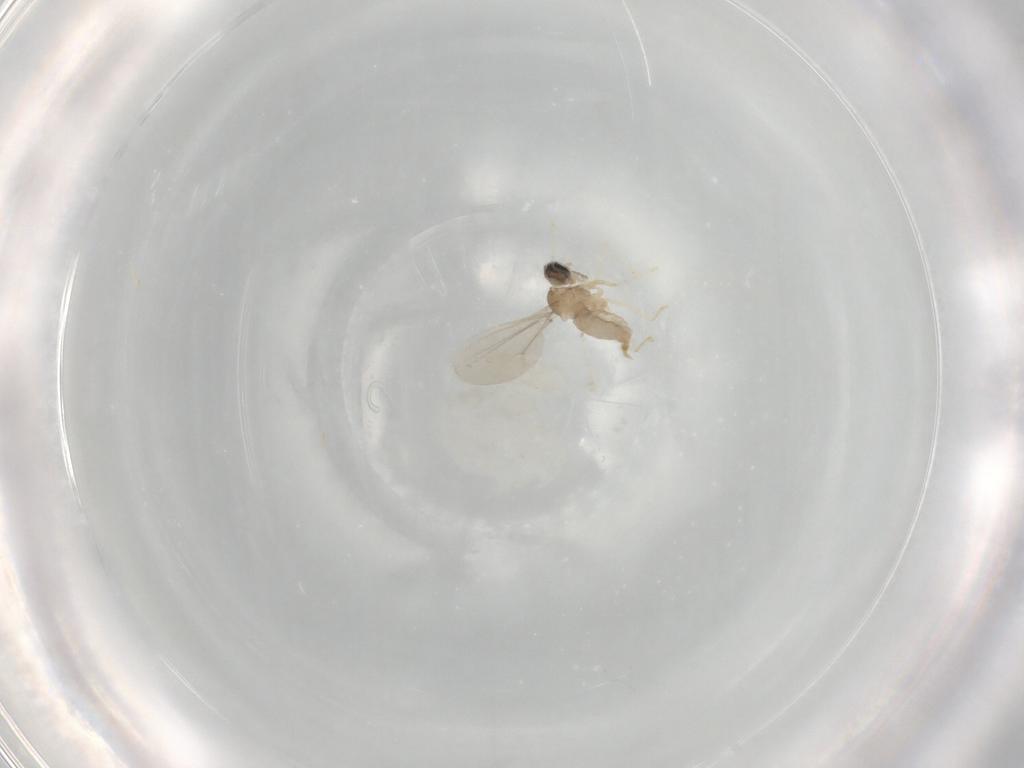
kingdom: Animalia
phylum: Arthropoda
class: Insecta
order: Diptera
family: Cecidomyiidae
